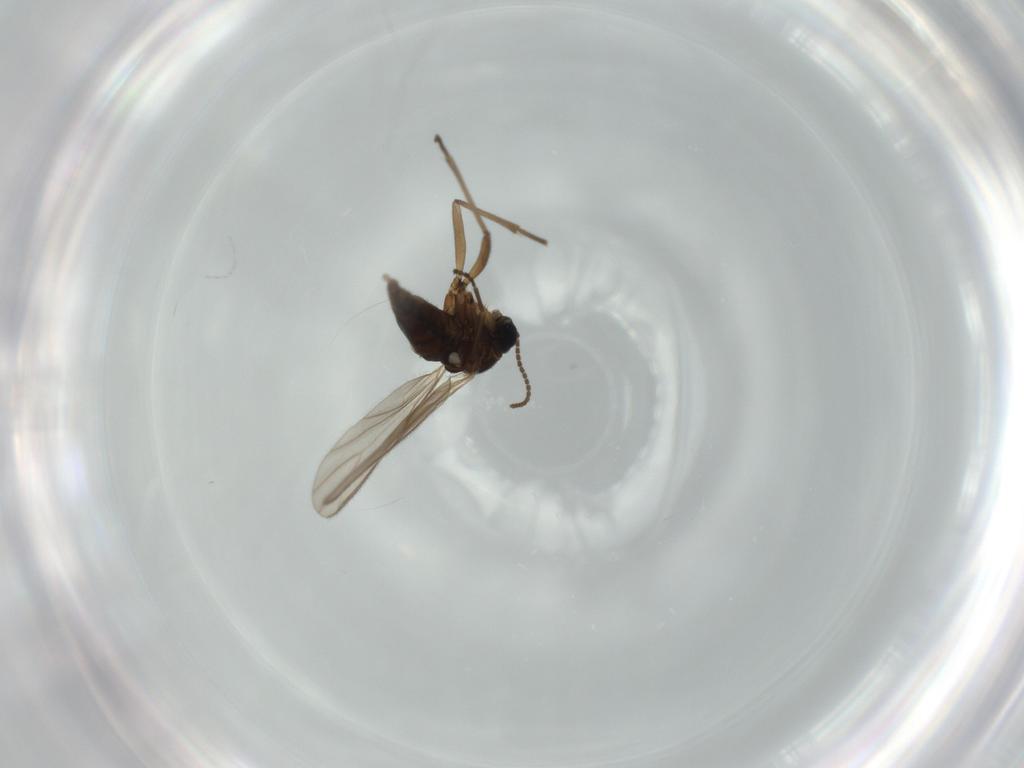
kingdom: Animalia
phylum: Arthropoda
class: Insecta
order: Diptera
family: Sciaridae
